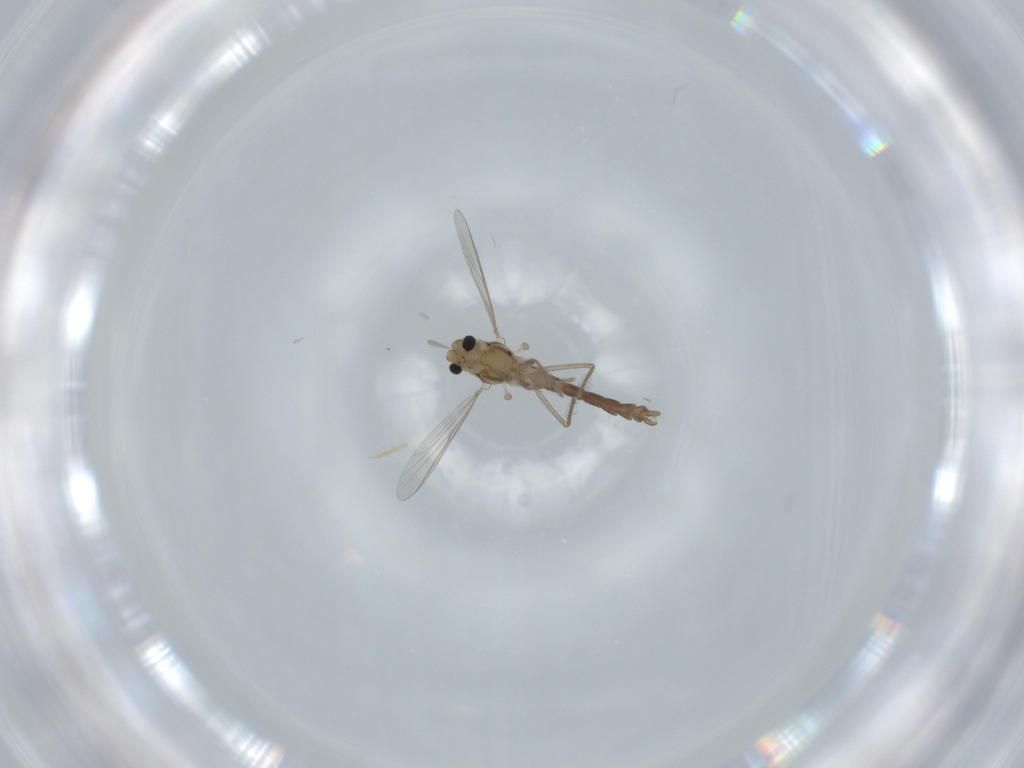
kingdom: Animalia
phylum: Arthropoda
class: Insecta
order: Diptera
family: Chironomidae
